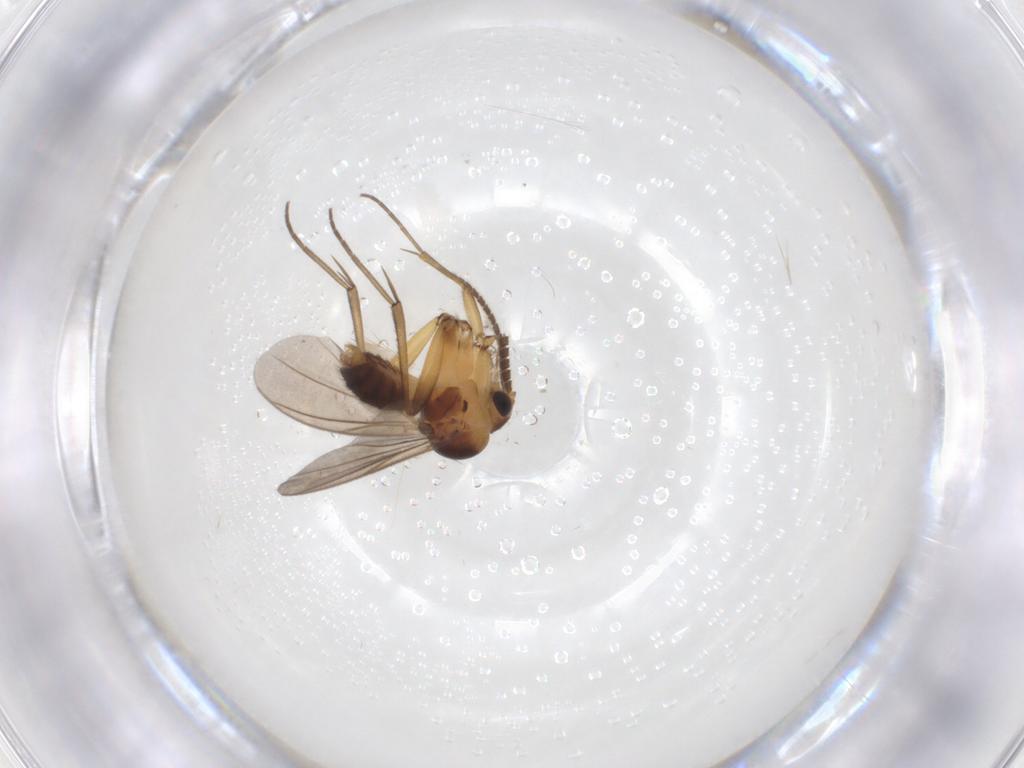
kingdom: Animalia
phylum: Arthropoda
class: Insecta
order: Diptera
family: Mycetophilidae
